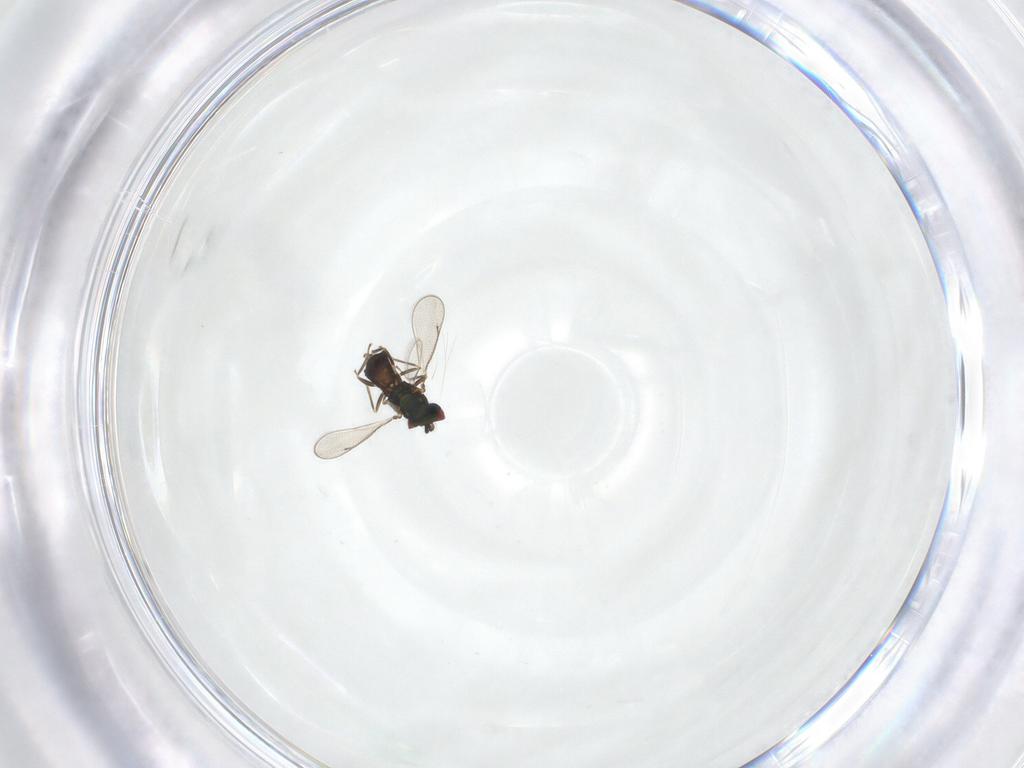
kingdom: Animalia
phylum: Arthropoda
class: Insecta
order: Hymenoptera
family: Eulophidae
